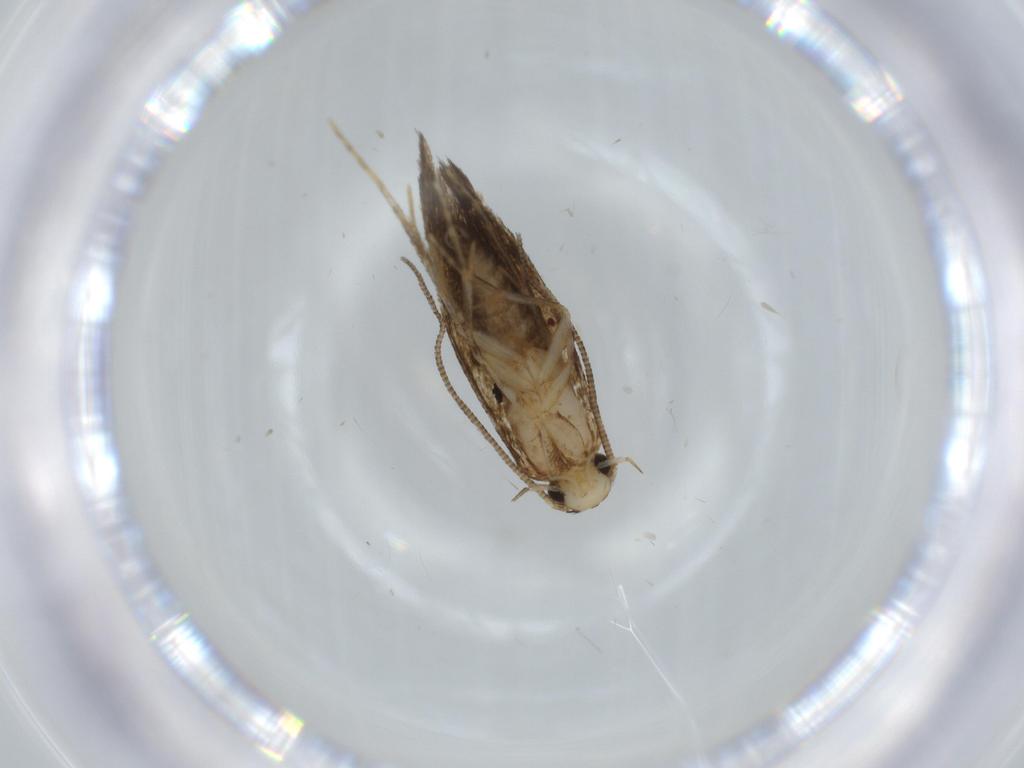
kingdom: Animalia
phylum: Arthropoda
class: Insecta
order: Lepidoptera
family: Tineidae
